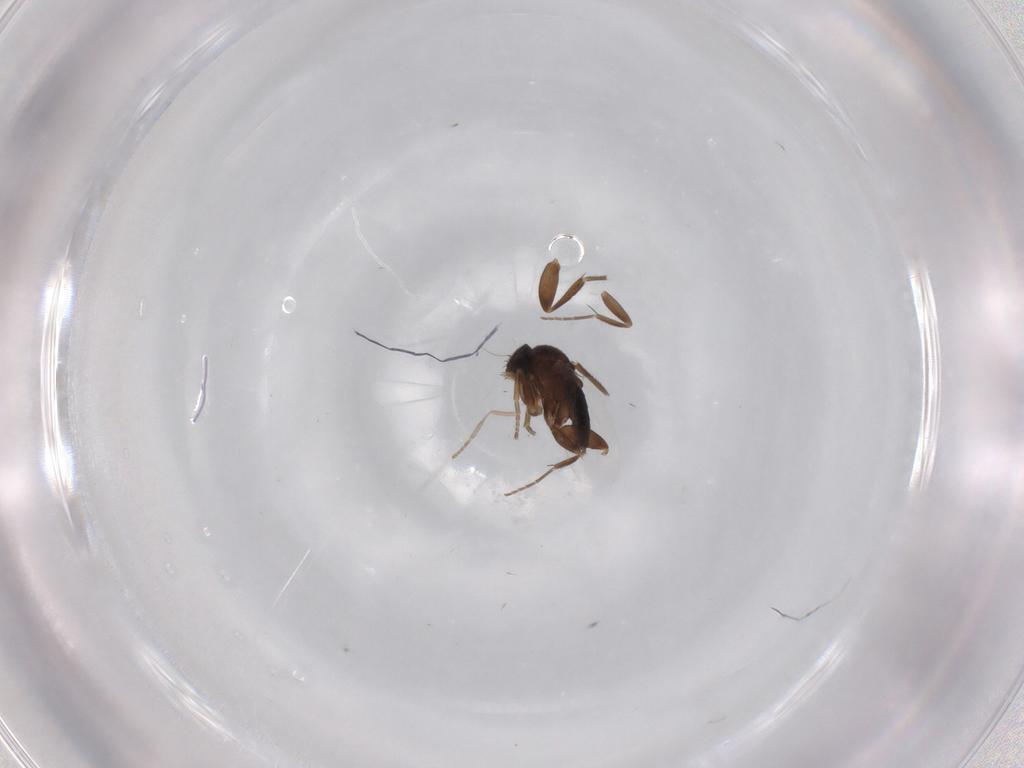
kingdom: Animalia
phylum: Arthropoda
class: Insecta
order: Diptera
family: Phoridae
